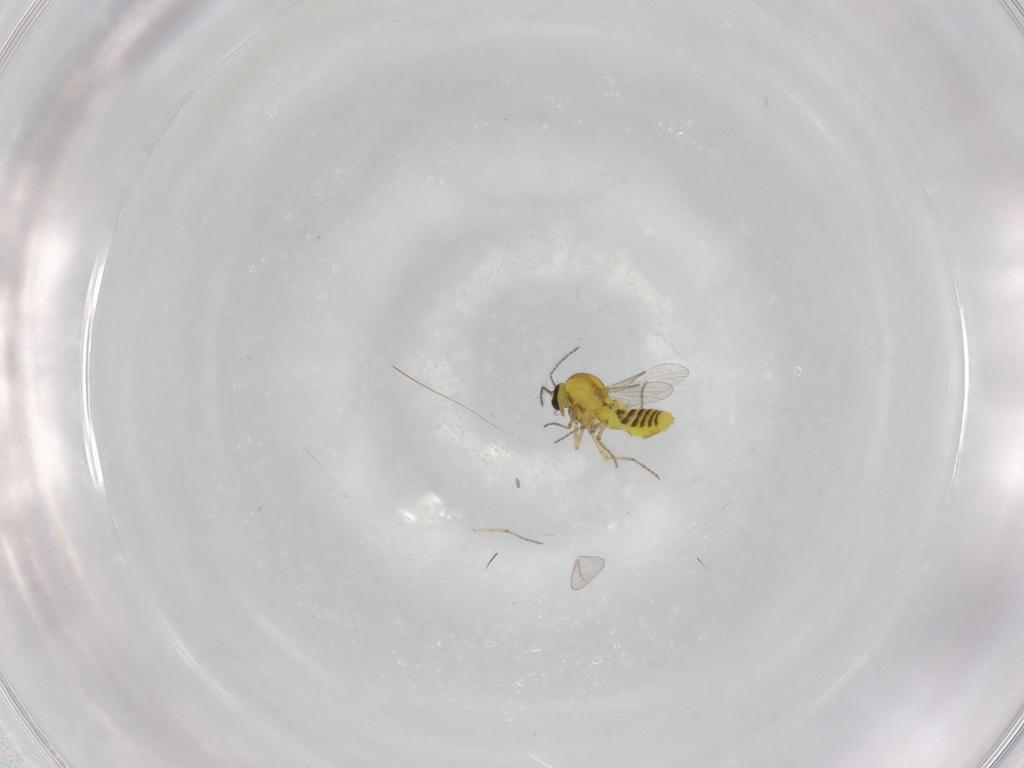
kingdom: Animalia
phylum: Arthropoda
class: Insecta
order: Diptera
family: Ceratopogonidae
